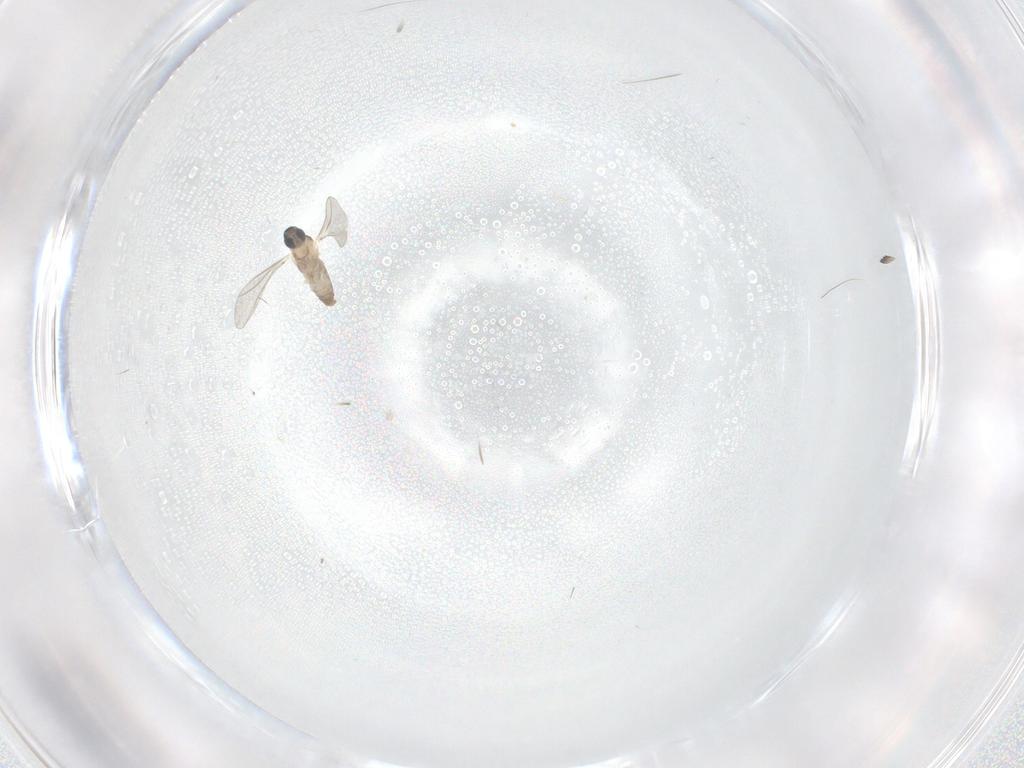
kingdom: Animalia
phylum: Arthropoda
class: Insecta
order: Diptera
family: Cecidomyiidae
